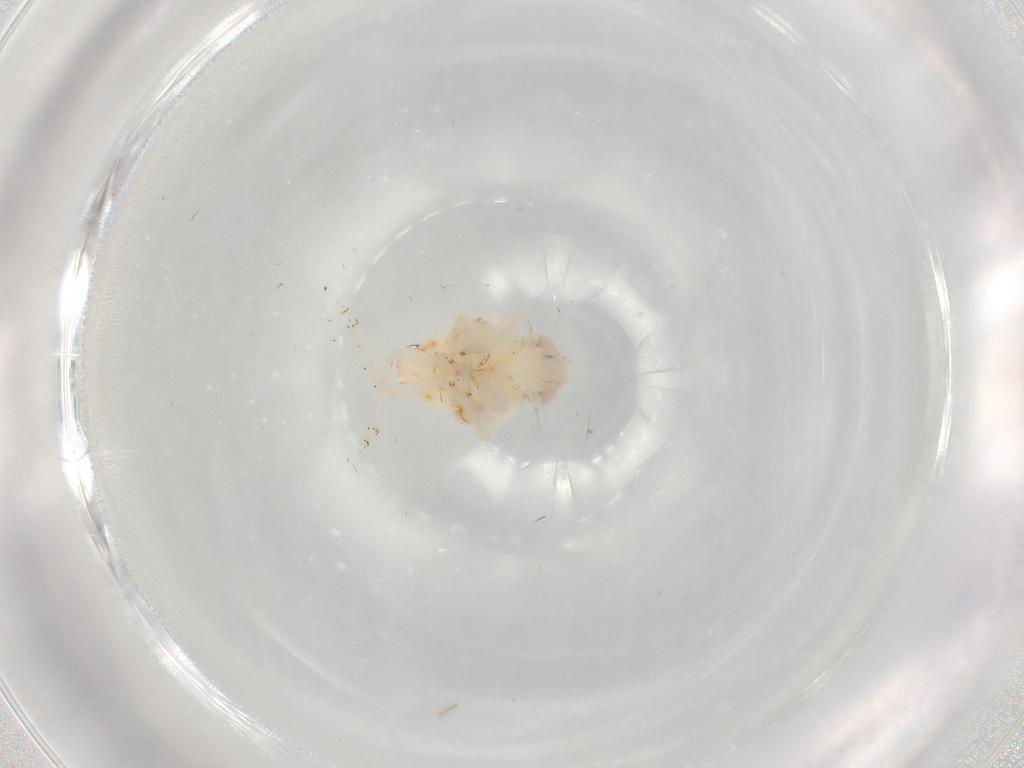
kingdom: Animalia
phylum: Arthropoda
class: Insecta
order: Hemiptera
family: Nogodinidae
